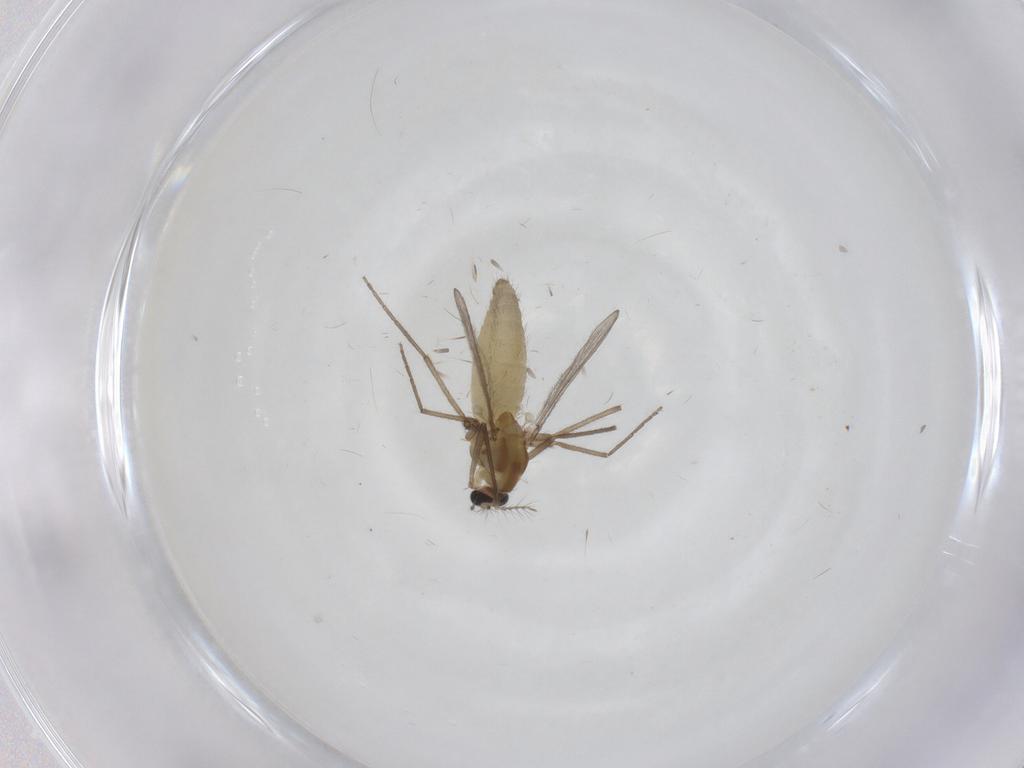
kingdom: Animalia
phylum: Arthropoda
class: Insecta
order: Diptera
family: Chironomidae
